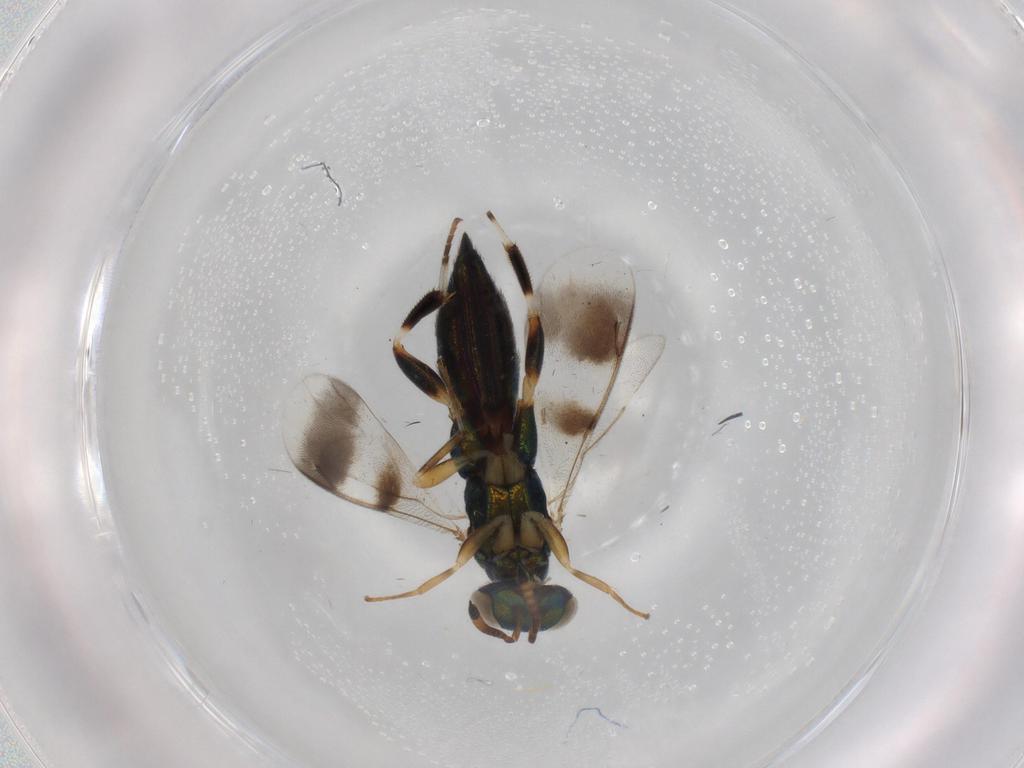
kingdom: Animalia
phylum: Arthropoda
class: Insecta
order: Hymenoptera
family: Cleonyminae
